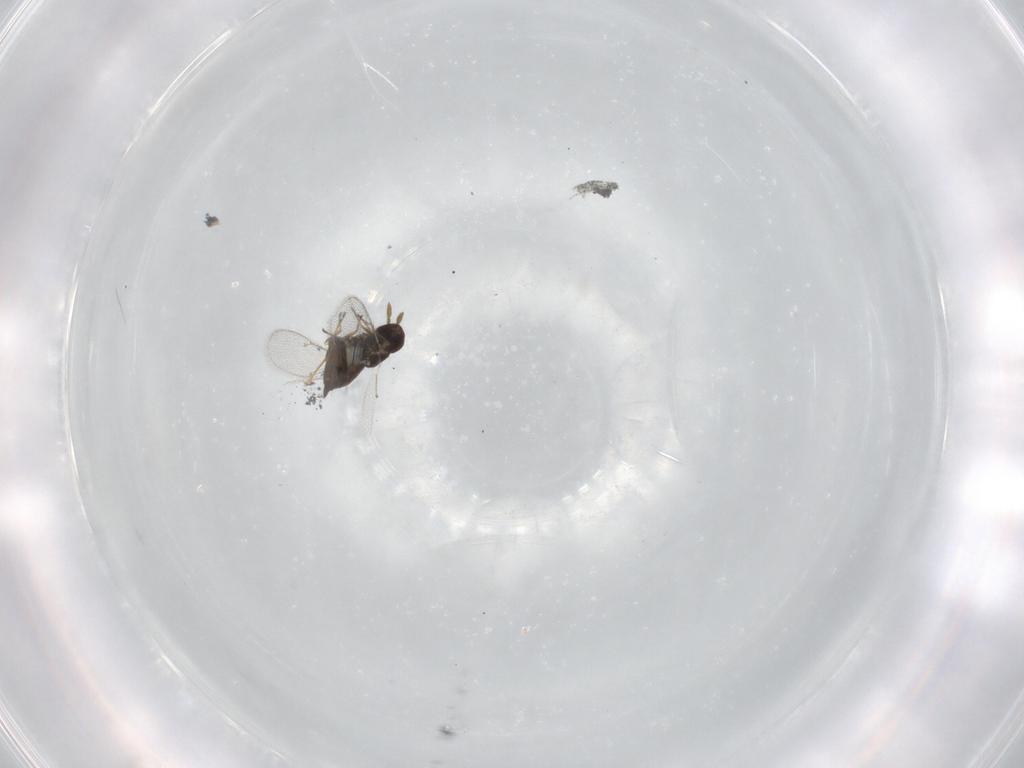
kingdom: Animalia
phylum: Arthropoda
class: Insecta
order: Hymenoptera
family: Eulophidae
